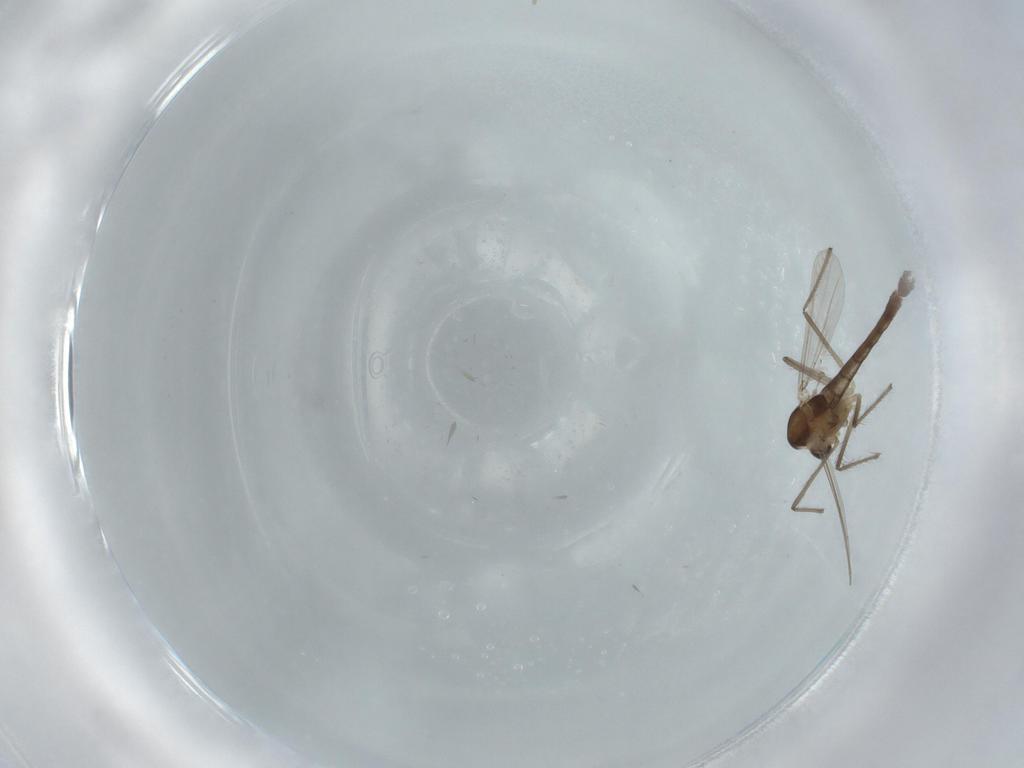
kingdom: Animalia
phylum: Arthropoda
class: Insecta
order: Diptera
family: Chironomidae
